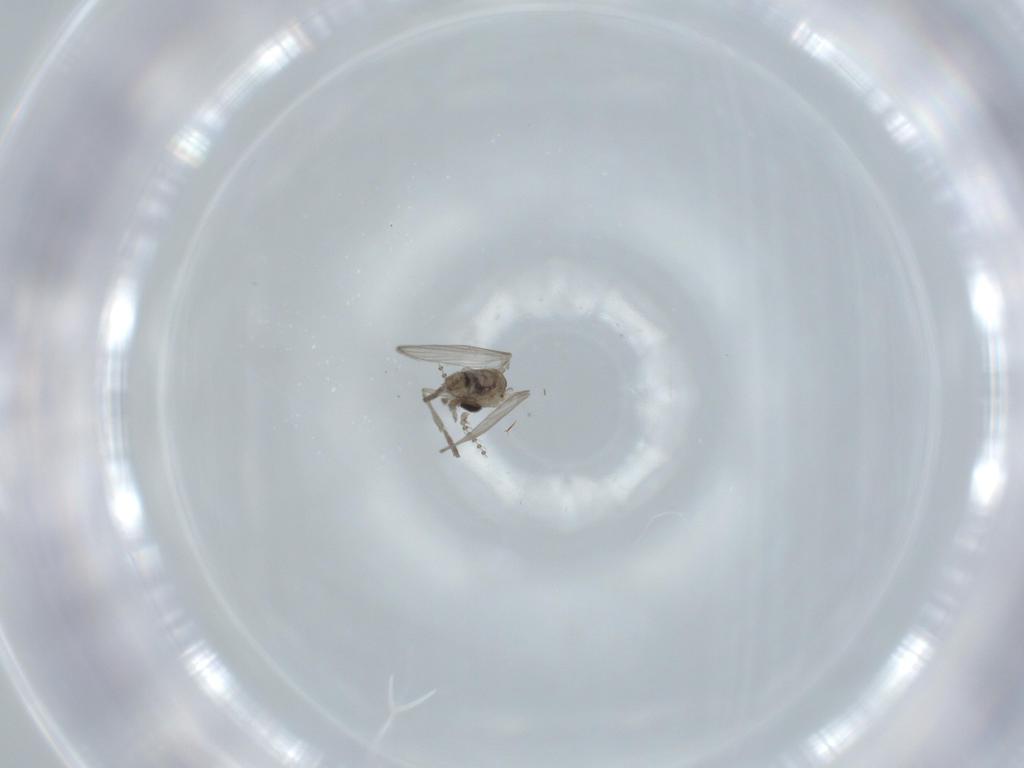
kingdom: Animalia
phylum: Arthropoda
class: Insecta
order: Diptera
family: Psychodidae
